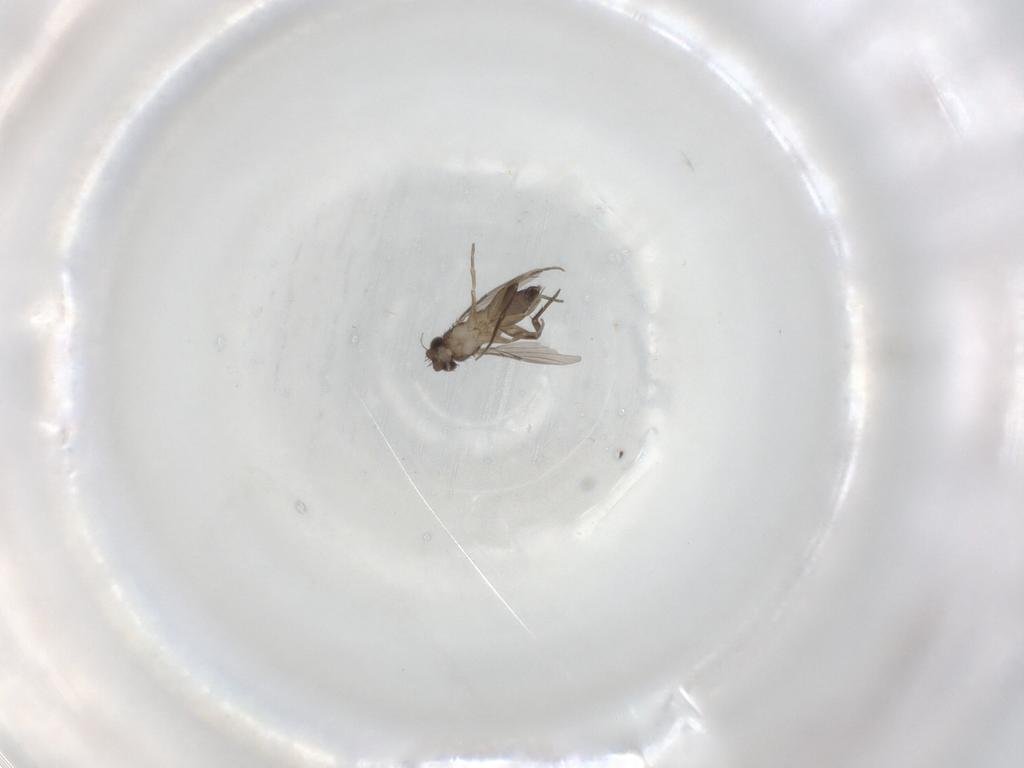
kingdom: Animalia
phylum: Arthropoda
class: Insecta
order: Diptera
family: Phoridae
